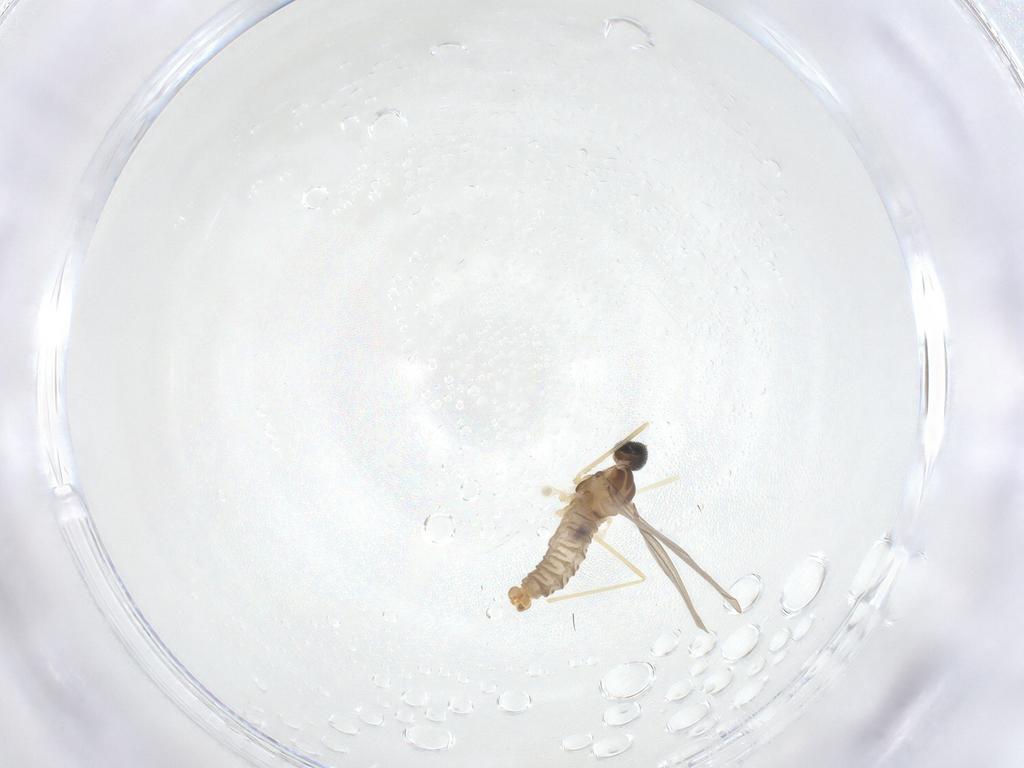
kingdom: Animalia
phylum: Arthropoda
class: Insecta
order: Diptera
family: Cecidomyiidae
